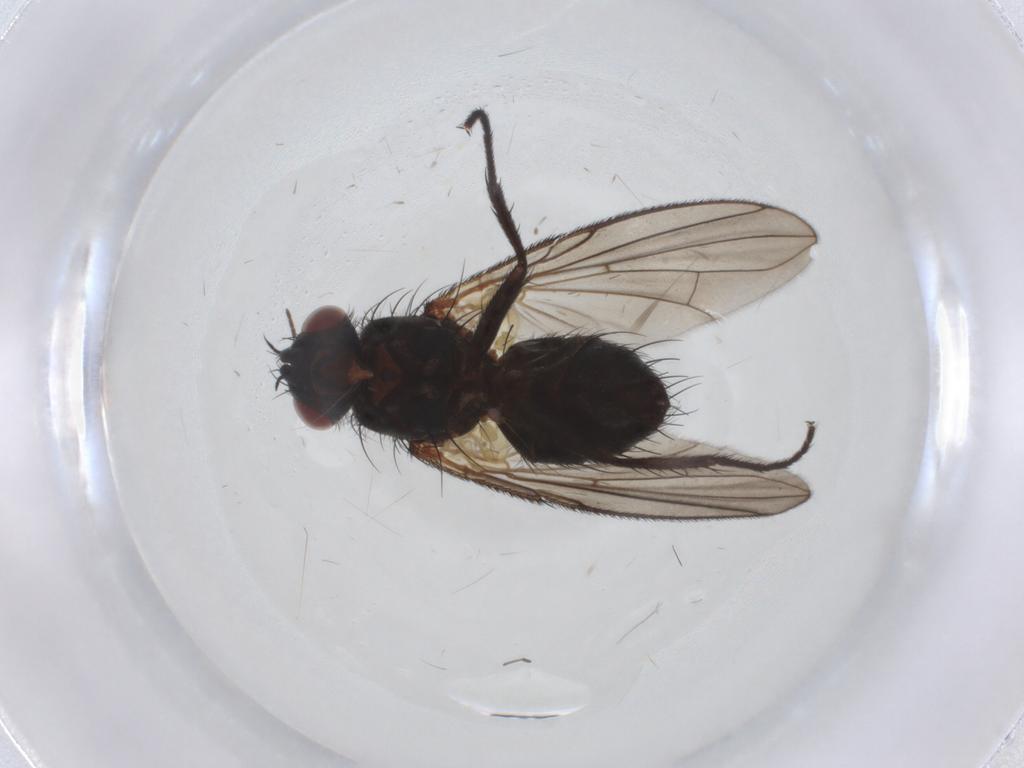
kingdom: Animalia
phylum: Arthropoda
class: Insecta
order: Diptera
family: Tachinidae
